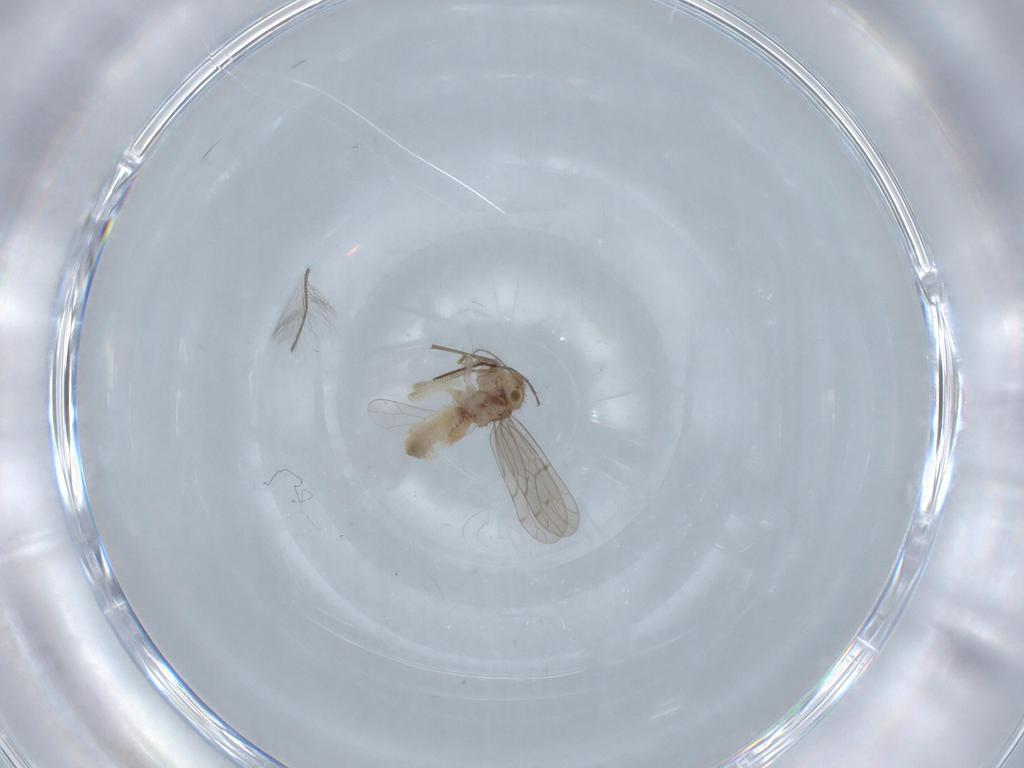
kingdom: Animalia
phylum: Arthropoda
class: Insecta
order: Psocodea
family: Ectopsocidae
